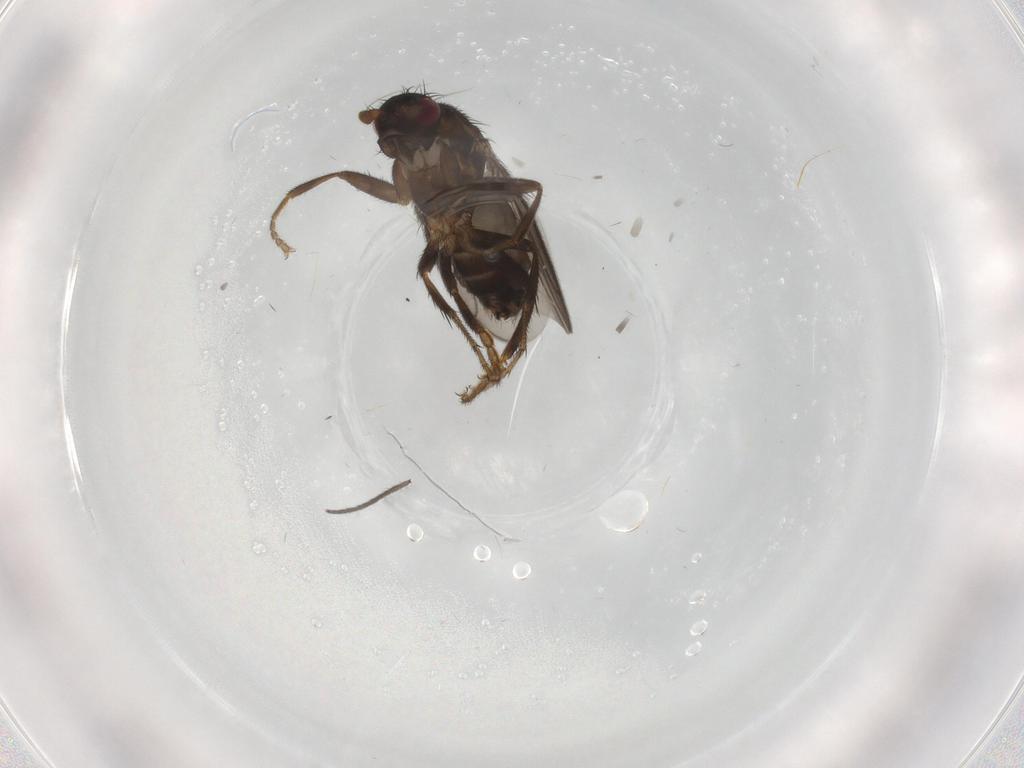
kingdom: Animalia
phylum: Arthropoda
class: Insecta
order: Diptera
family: Sphaeroceridae
